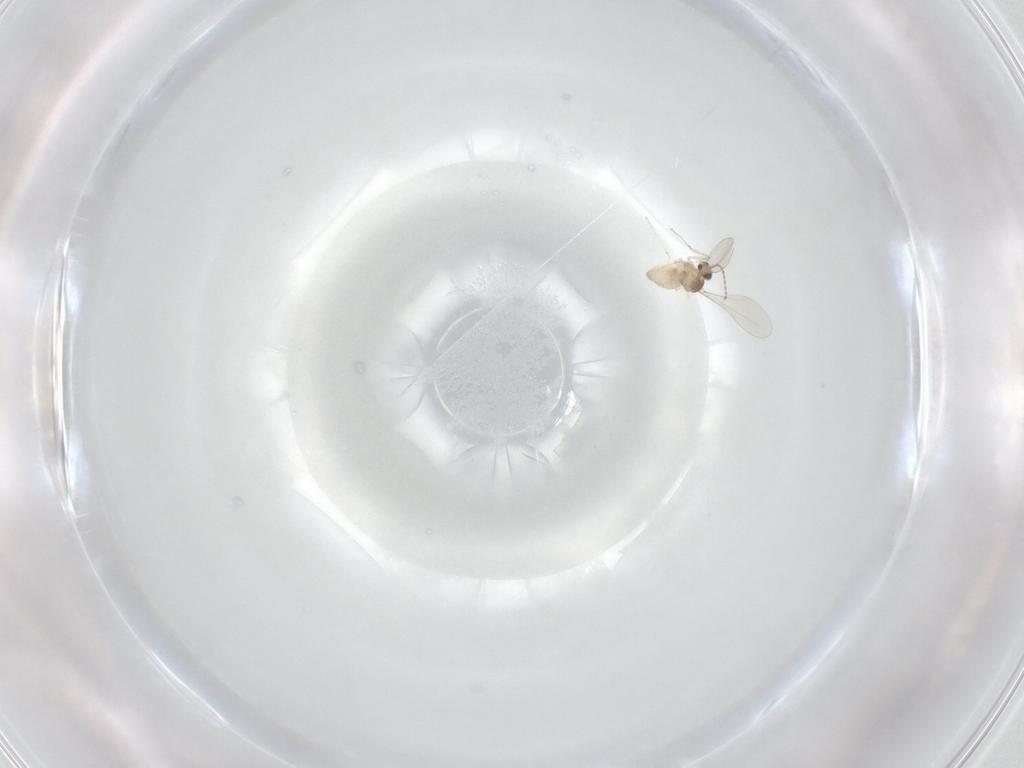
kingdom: Animalia
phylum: Arthropoda
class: Insecta
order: Diptera
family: Cecidomyiidae
